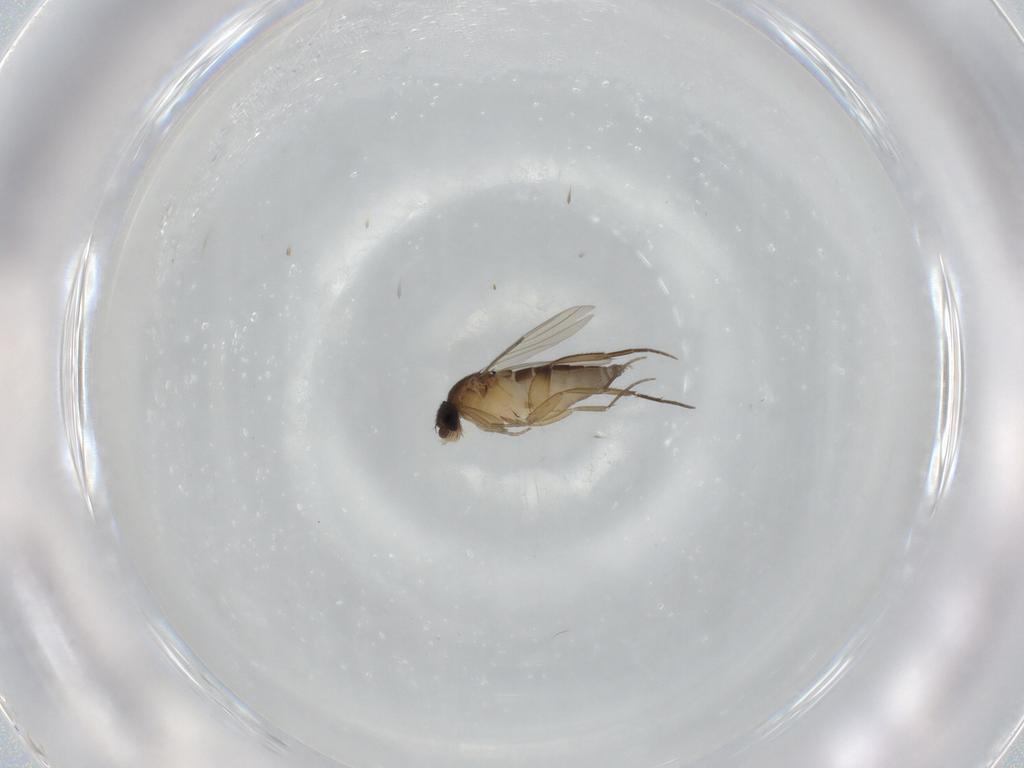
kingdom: Animalia
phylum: Arthropoda
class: Insecta
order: Diptera
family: Phoridae
